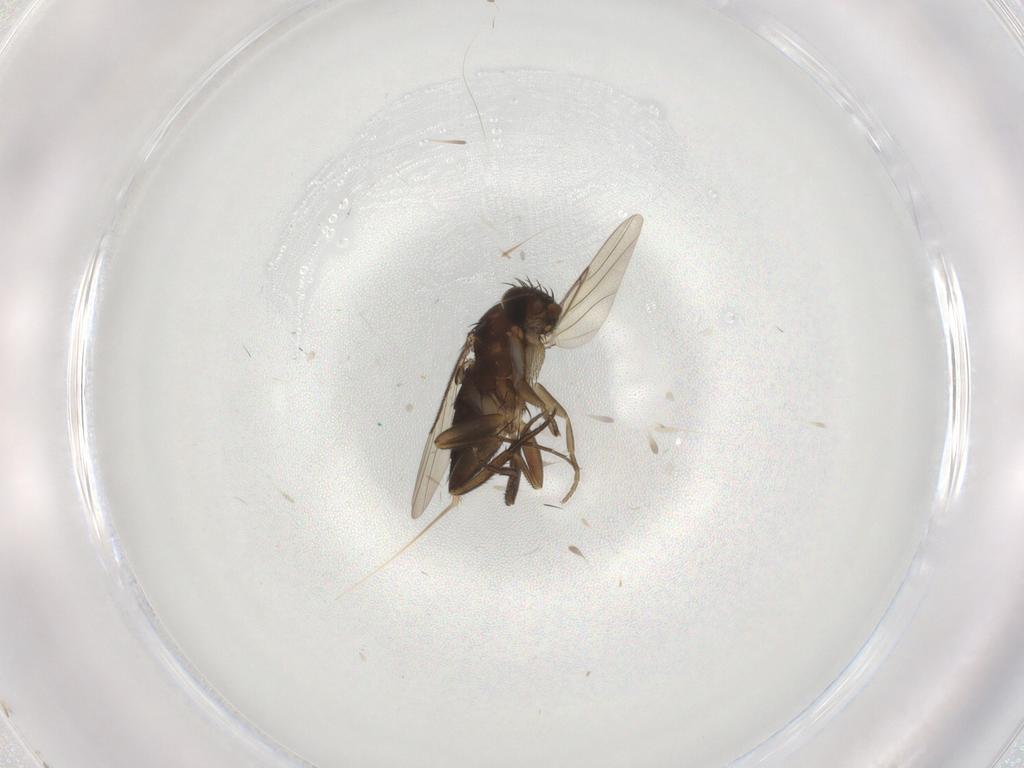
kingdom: Animalia
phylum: Arthropoda
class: Insecta
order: Diptera
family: Phoridae
